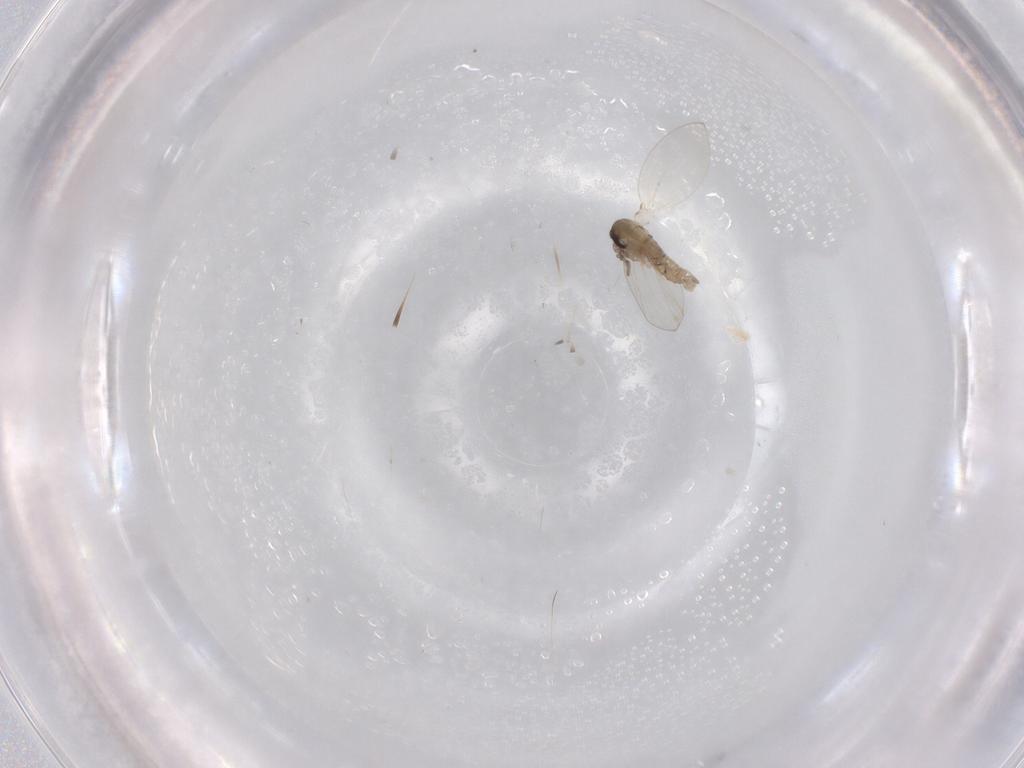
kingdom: Animalia
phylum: Arthropoda
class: Insecta
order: Diptera
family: Psychodidae
